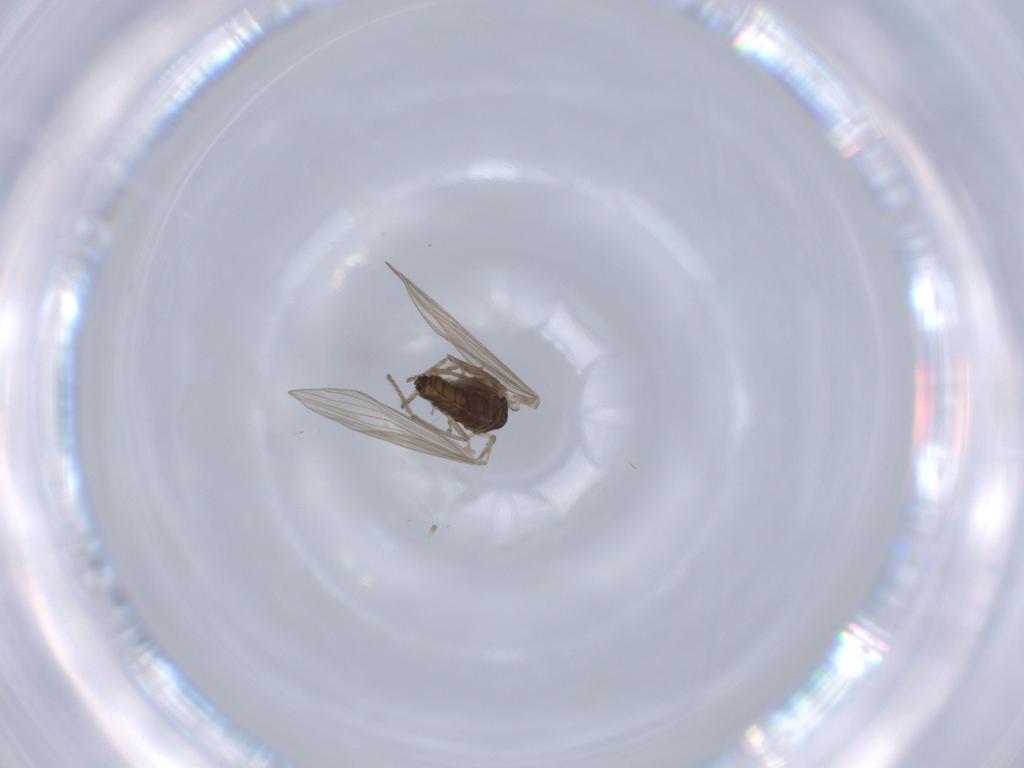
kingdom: Animalia
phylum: Arthropoda
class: Insecta
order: Diptera
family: Psychodidae
